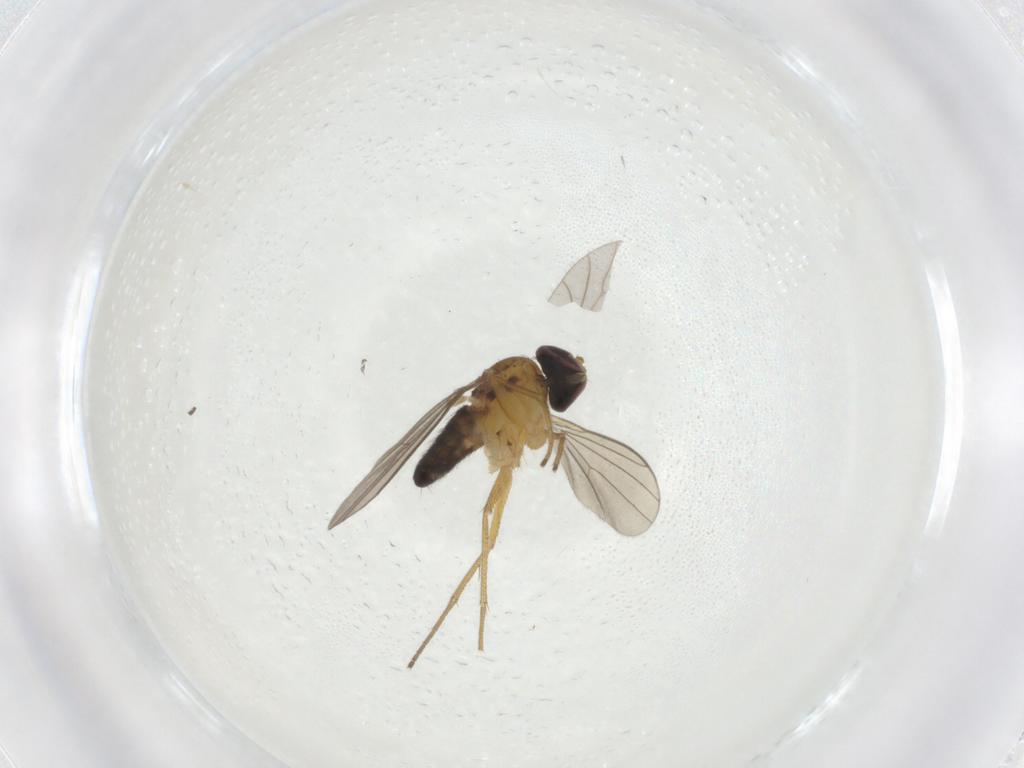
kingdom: Animalia
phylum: Arthropoda
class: Insecta
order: Diptera
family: Dolichopodidae
